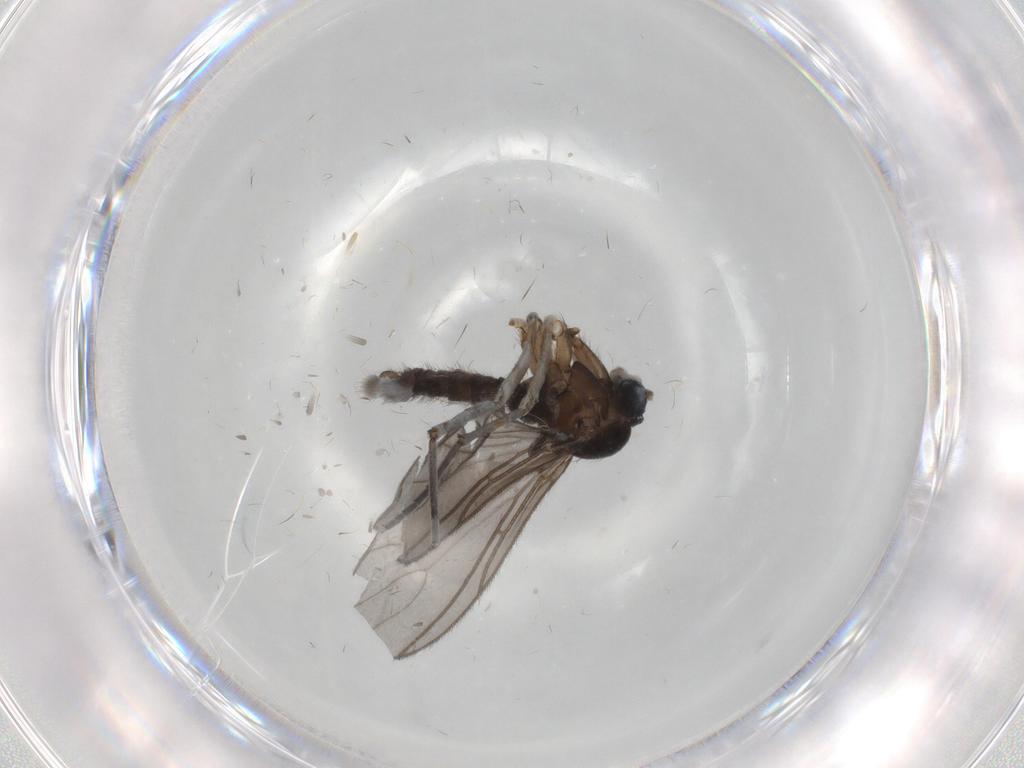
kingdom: Animalia
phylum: Arthropoda
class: Insecta
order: Diptera
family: Sciaridae
